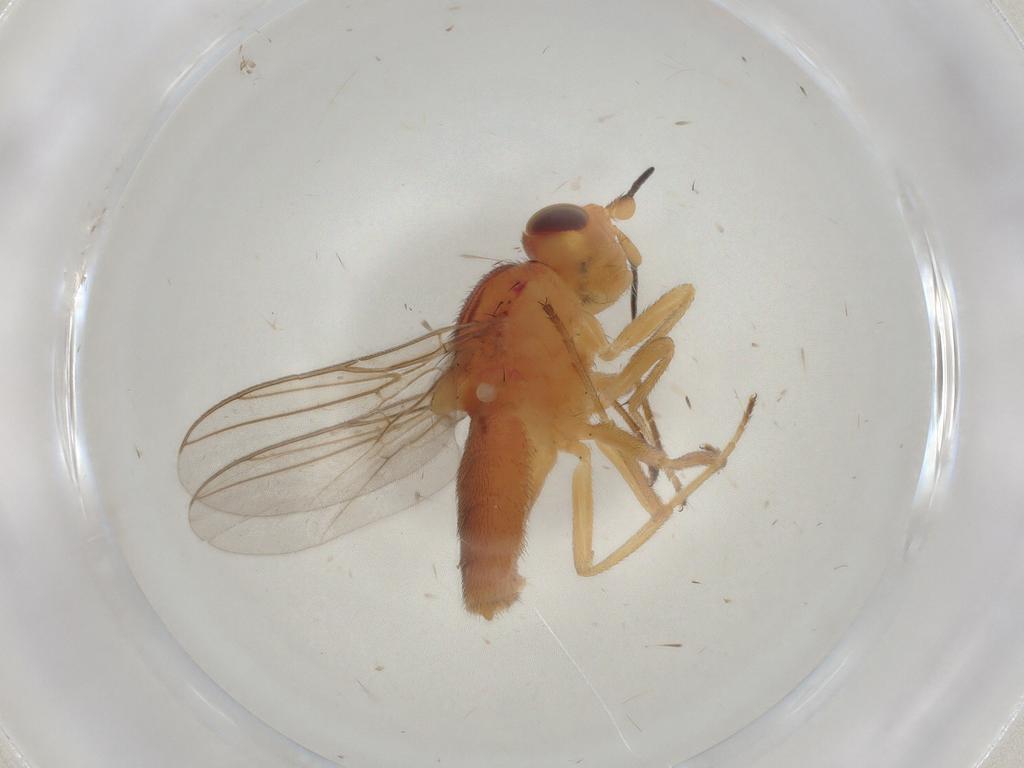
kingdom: Animalia
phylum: Arthropoda
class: Insecta
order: Diptera
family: Chloropidae
